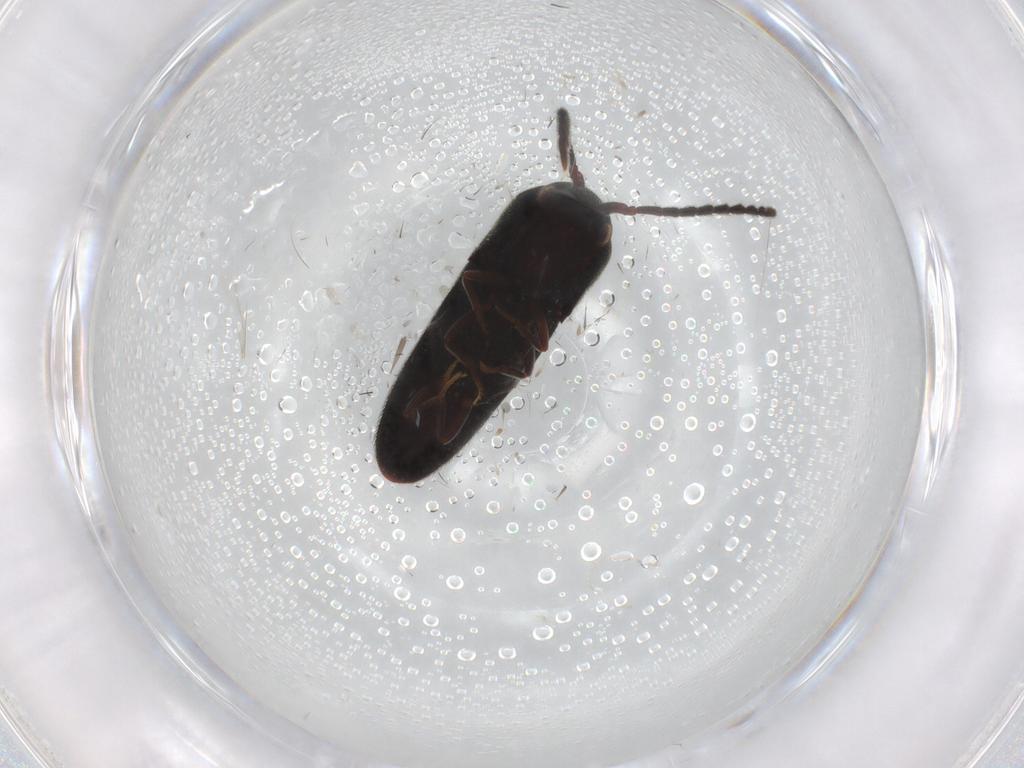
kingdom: Animalia
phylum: Arthropoda
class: Insecta
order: Coleoptera
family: Eucnemidae
